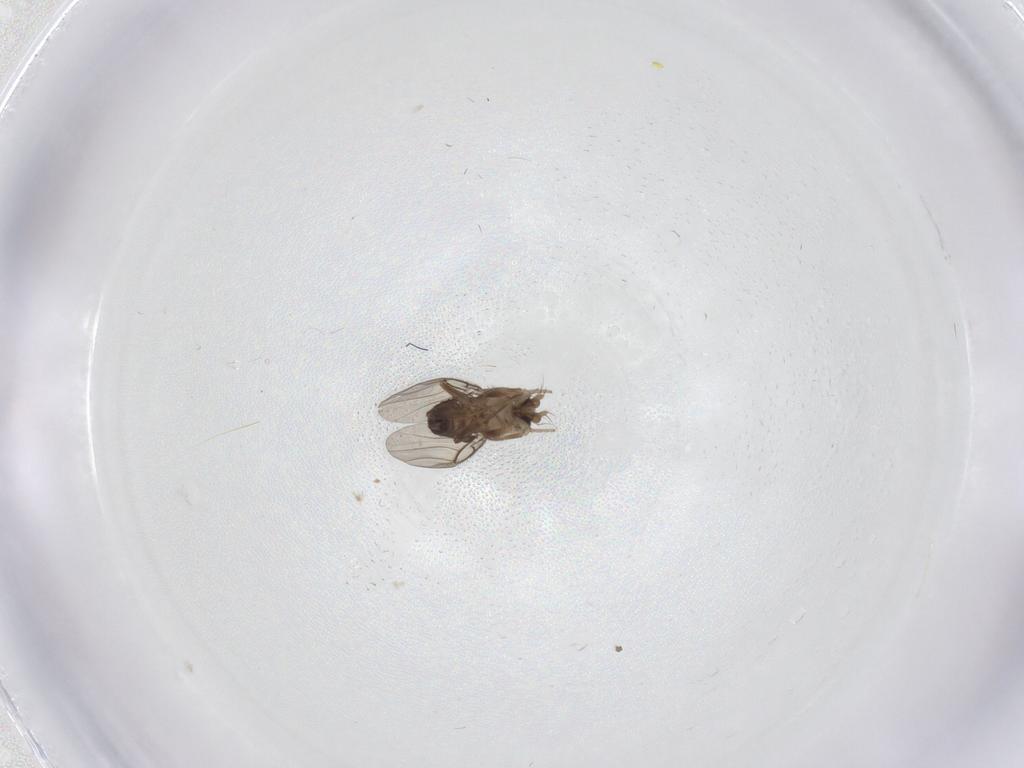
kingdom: Animalia
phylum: Arthropoda
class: Insecta
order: Diptera
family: Phoridae
